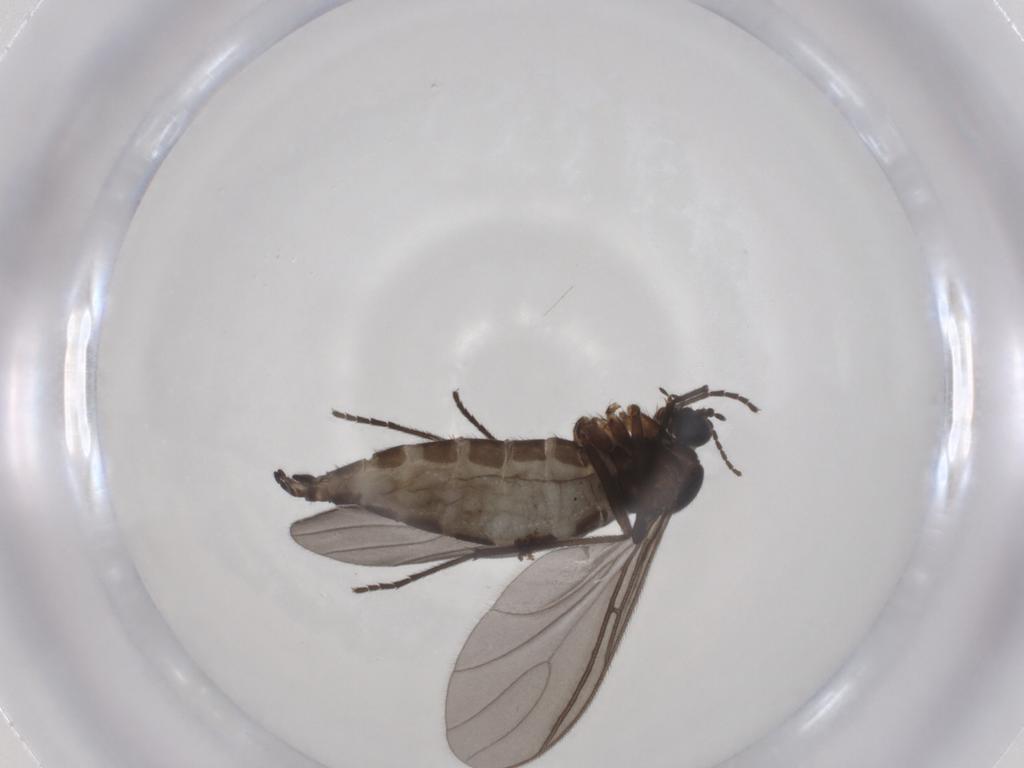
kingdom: Animalia
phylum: Arthropoda
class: Insecta
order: Diptera
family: Sciaridae
